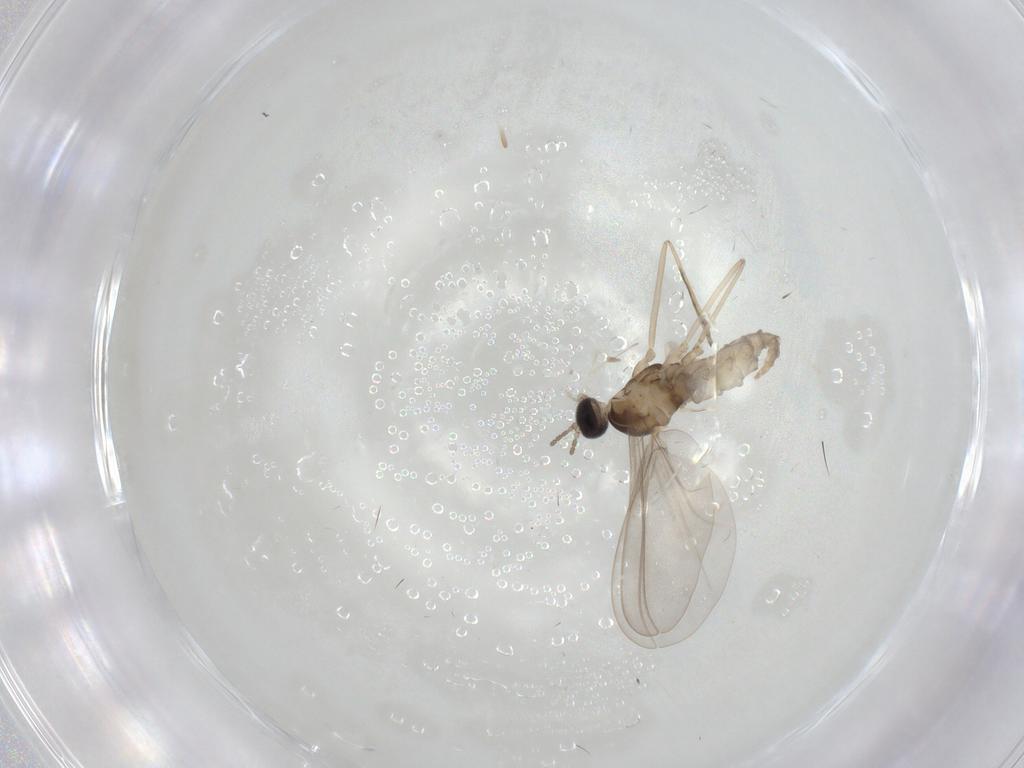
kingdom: Animalia
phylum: Arthropoda
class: Insecta
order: Diptera
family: Cecidomyiidae
